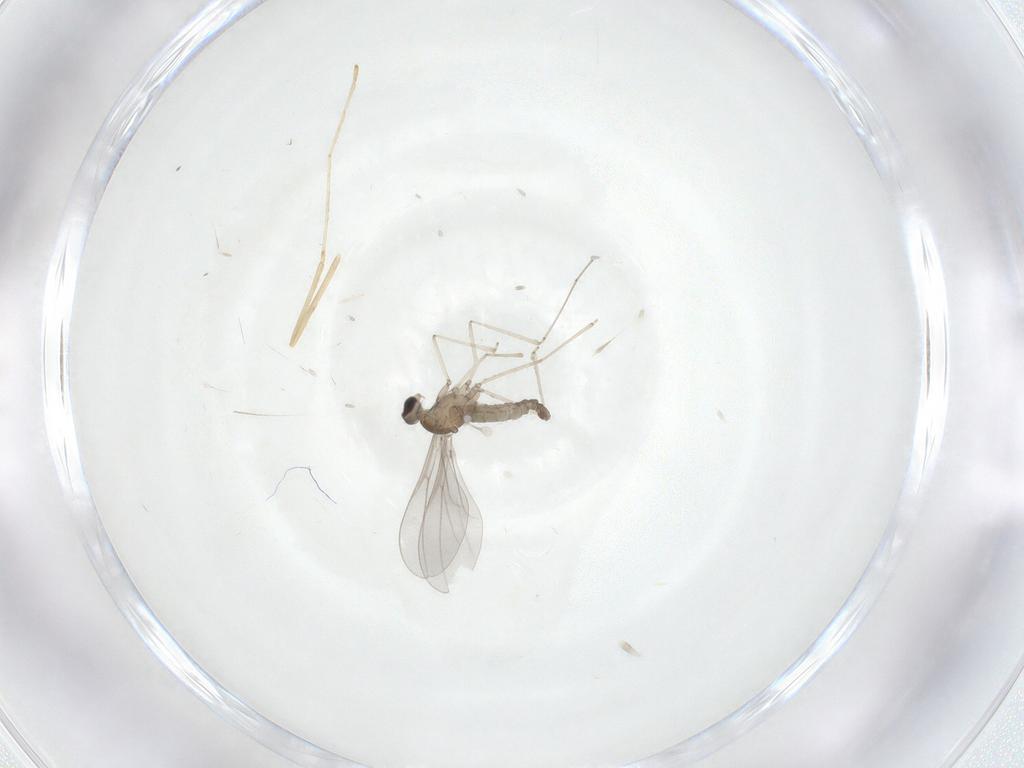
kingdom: Animalia
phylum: Arthropoda
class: Insecta
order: Diptera
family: Cecidomyiidae
